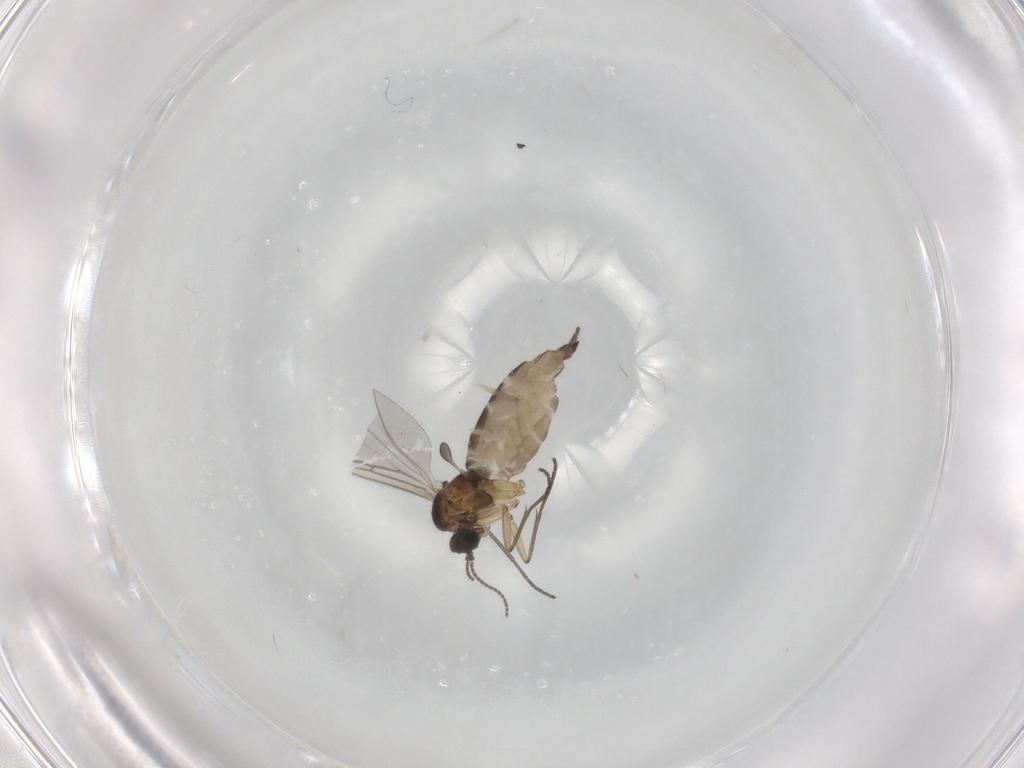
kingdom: Animalia
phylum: Arthropoda
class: Insecta
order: Diptera
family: Sciaridae
